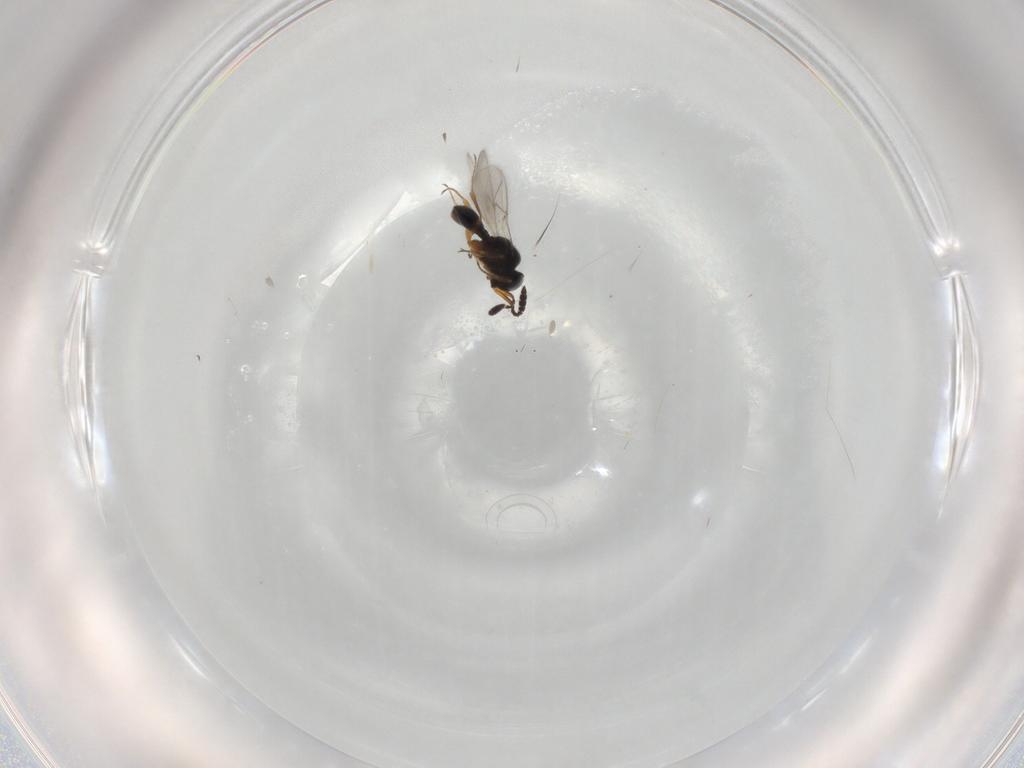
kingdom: Animalia
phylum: Arthropoda
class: Insecta
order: Hymenoptera
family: Scelionidae
